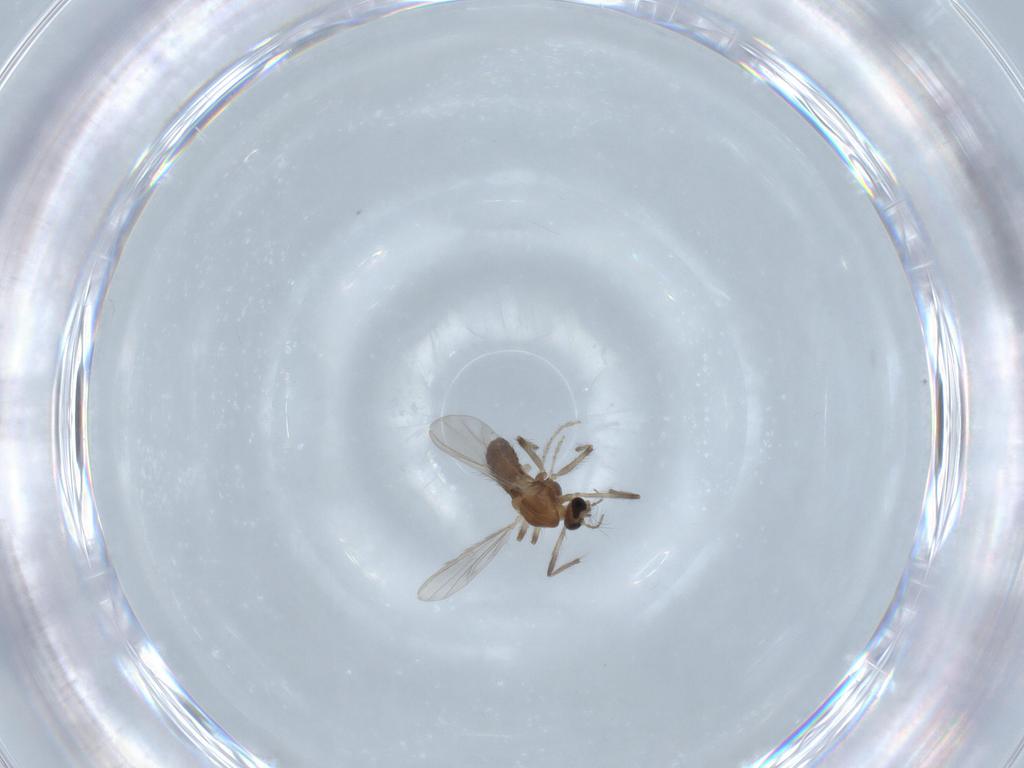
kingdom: Animalia
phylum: Arthropoda
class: Insecta
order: Diptera
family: Chironomidae
